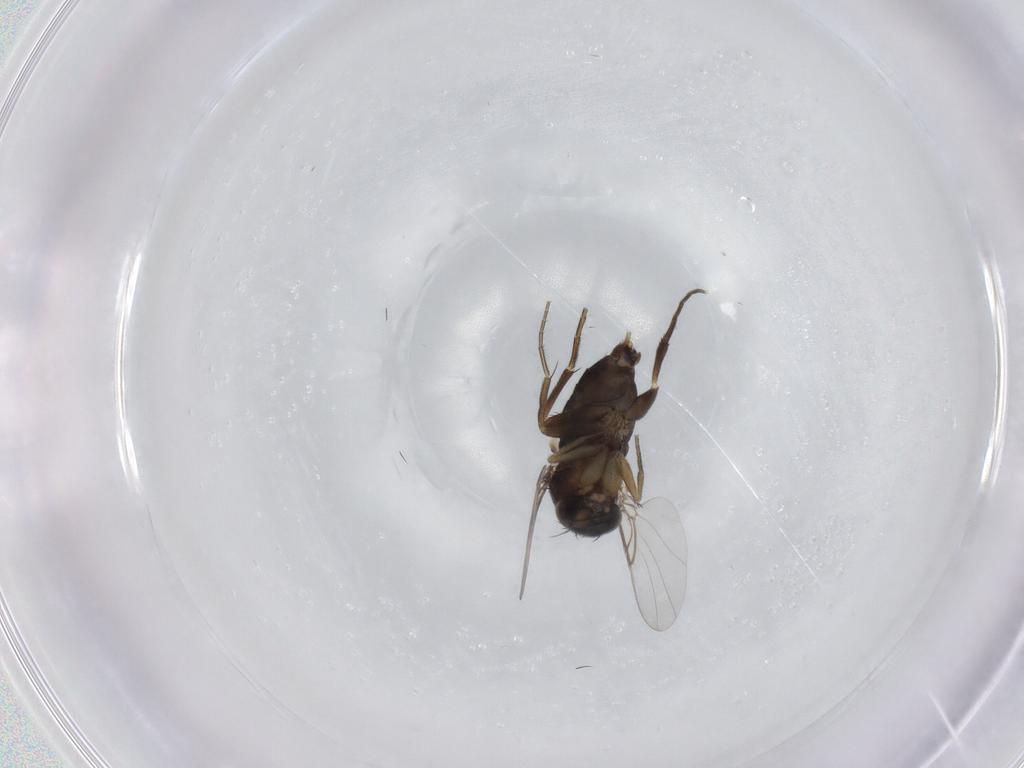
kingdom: Animalia
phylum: Arthropoda
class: Insecta
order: Diptera
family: Phoridae
